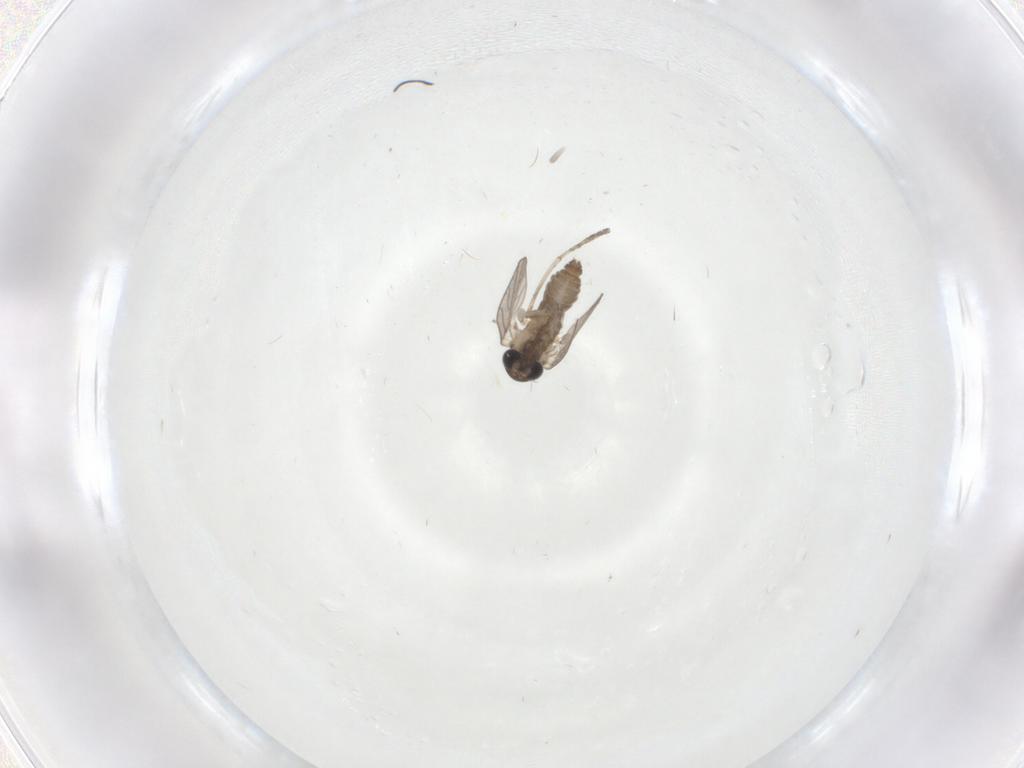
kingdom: Animalia
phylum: Arthropoda
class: Insecta
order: Diptera
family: Psychodidae
